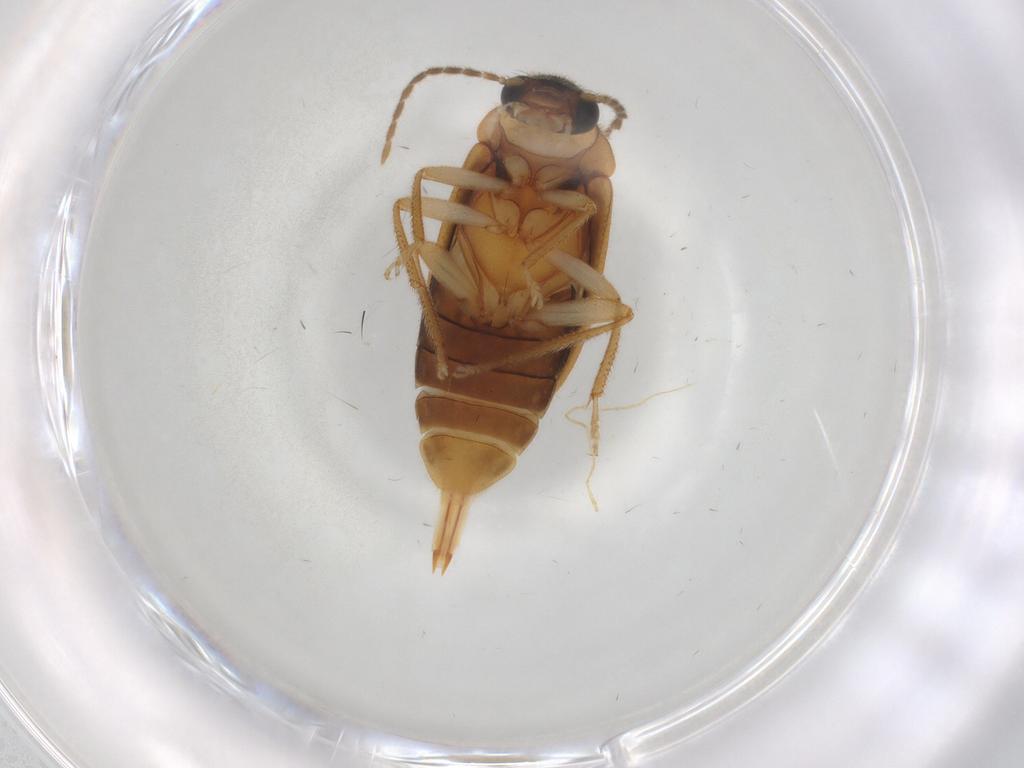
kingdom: Animalia
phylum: Arthropoda
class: Insecta
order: Coleoptera
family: Ptilodactylidae
